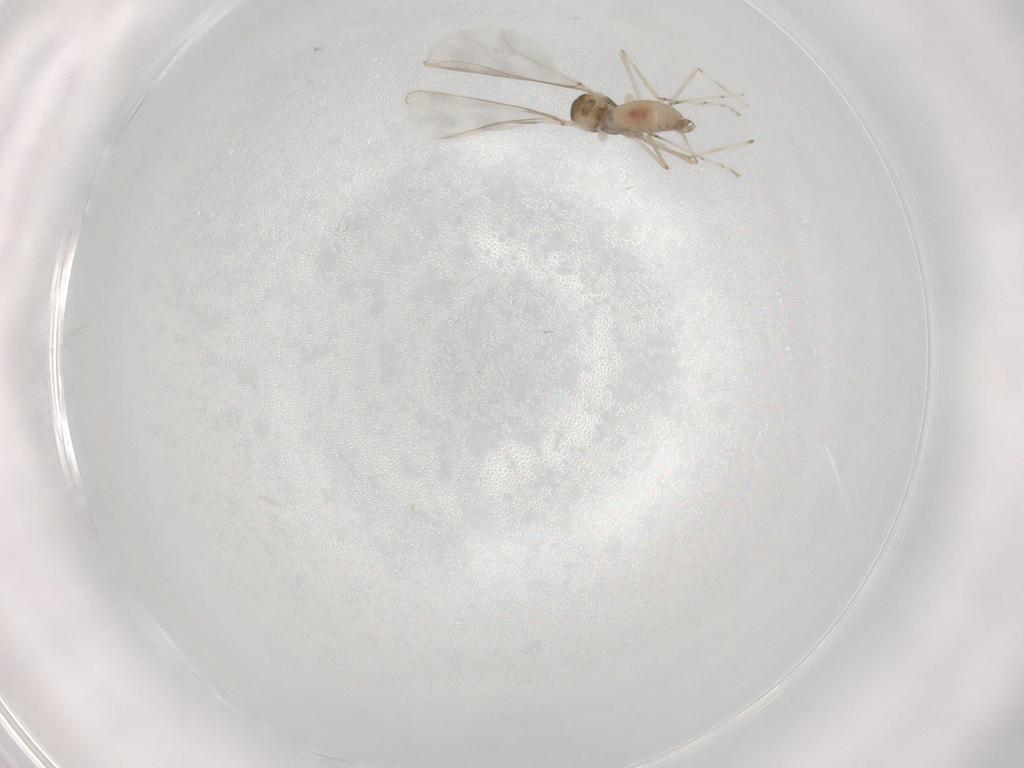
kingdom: Animalia
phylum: Arthropoda
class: Insecta
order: Diptera
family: Cecidomyiidae
